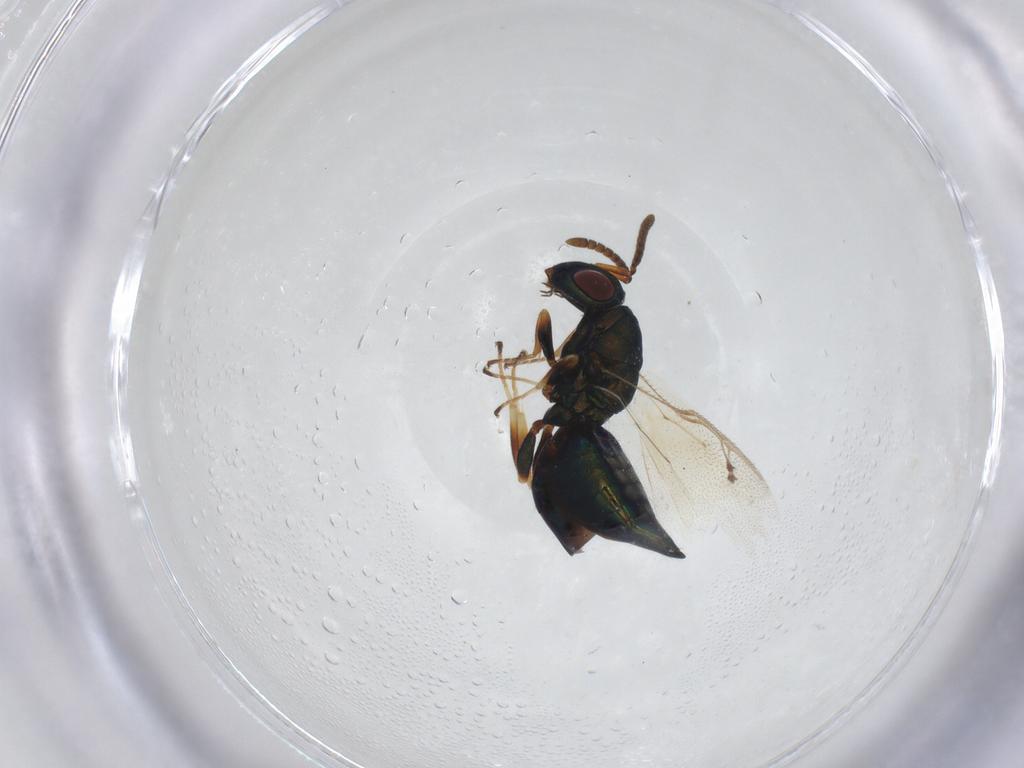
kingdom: Animalia
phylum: Arthropoda
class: Insecta
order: Hymenoptera
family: Pteromalidae
